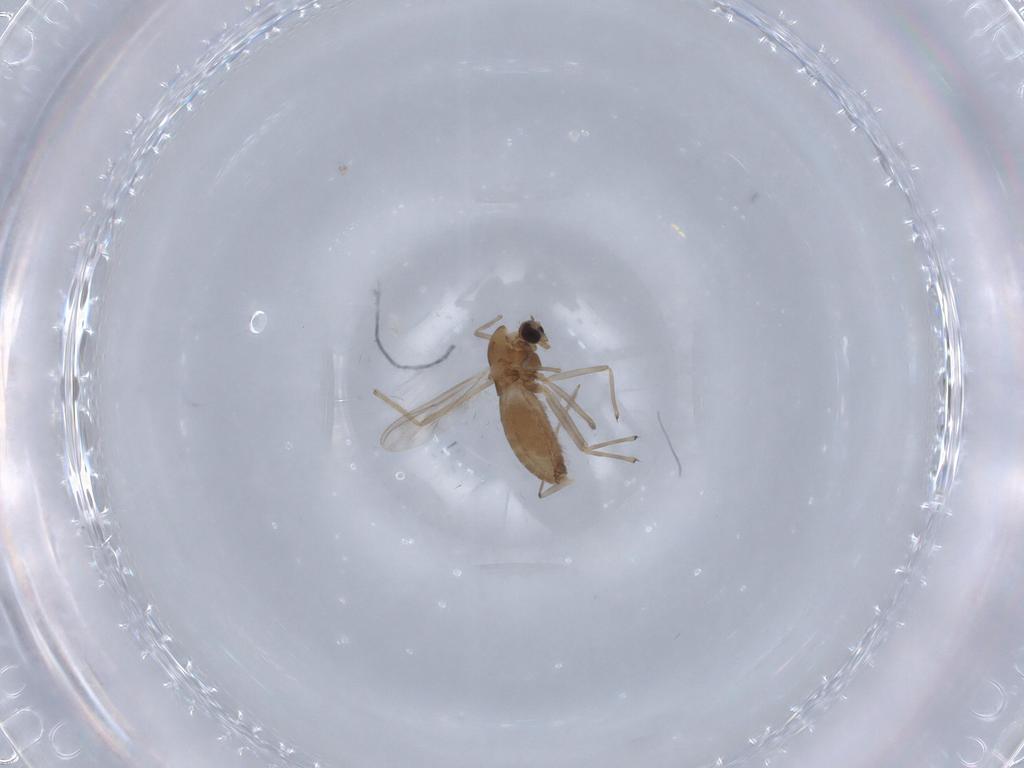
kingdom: Animalia
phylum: Arthropoda
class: Insecta
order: Diptera
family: Chironomidae
